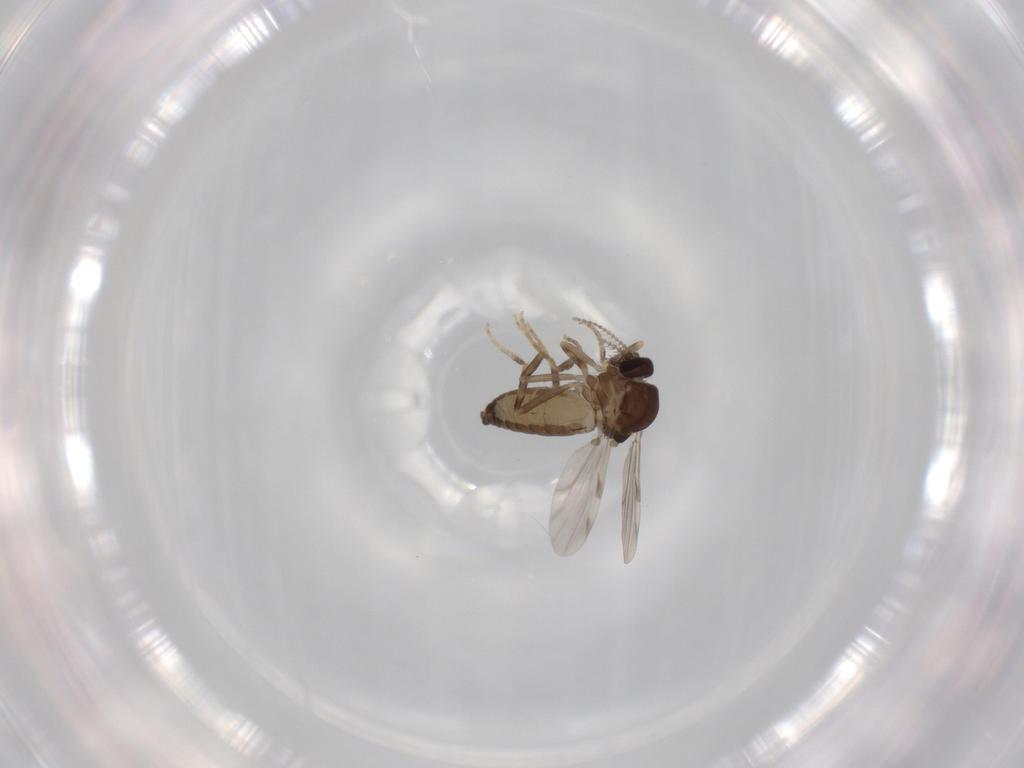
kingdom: Animalia
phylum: Arthropoda
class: Insecta
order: Diptera
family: Ceratopogonidae
